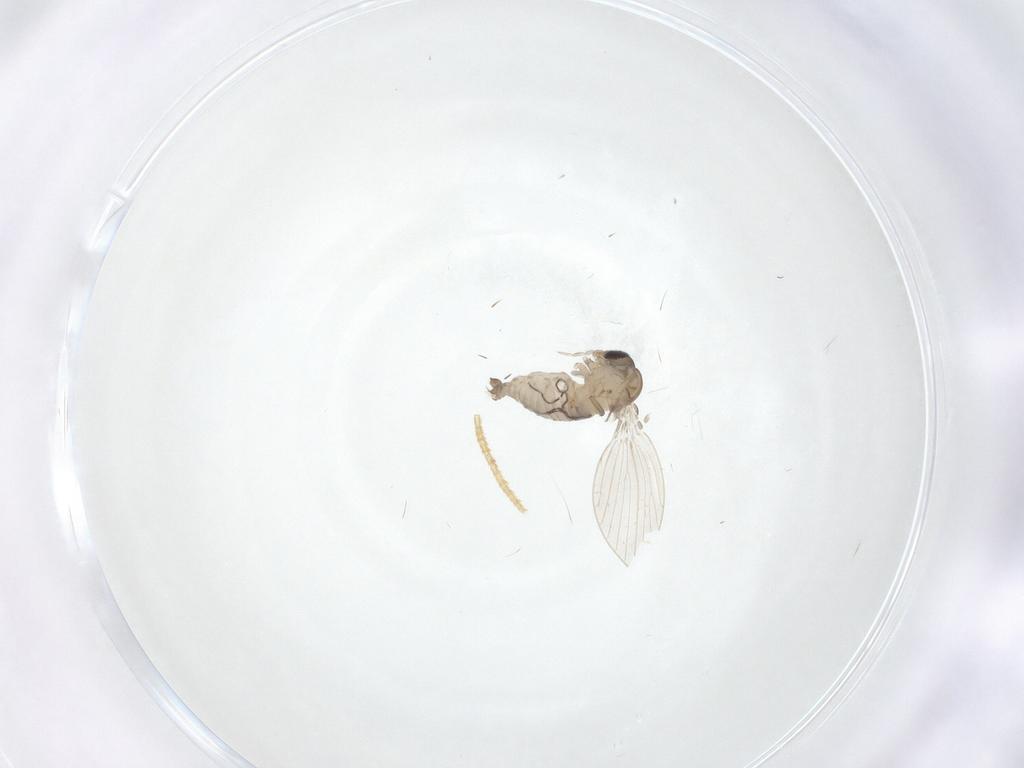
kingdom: Animalia
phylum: Arthropoda
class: Insecta
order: Diptera
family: Psychodidae
